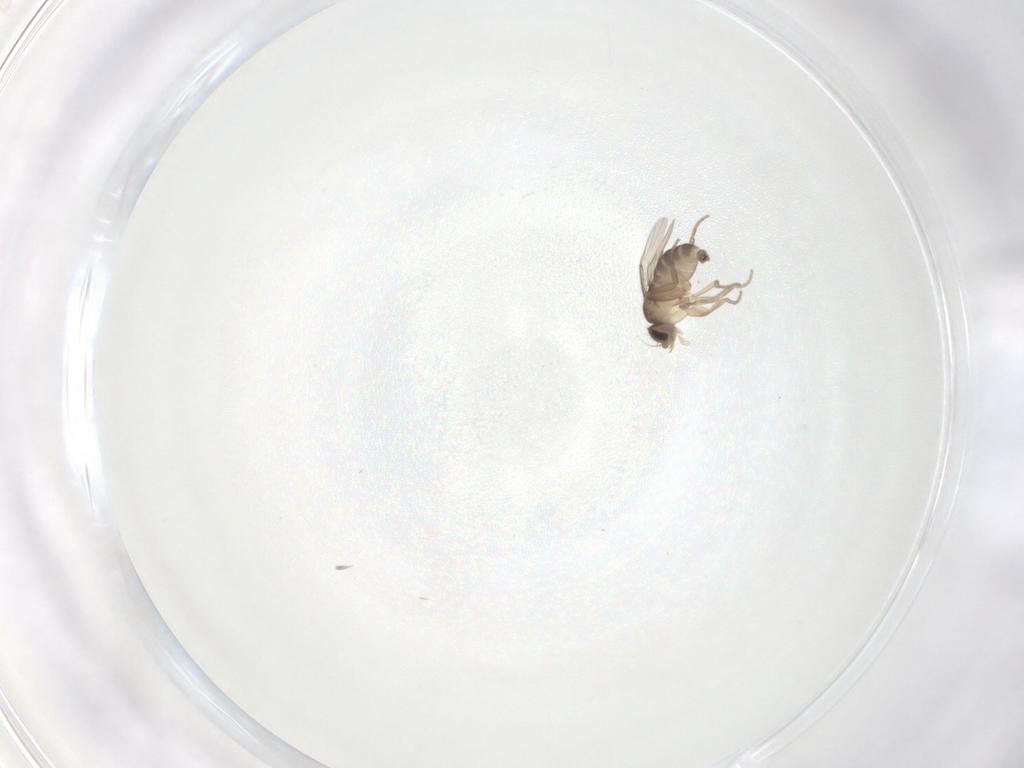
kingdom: Animalia
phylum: Arthropoda
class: Insecta
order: Diptera
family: Phoridae
